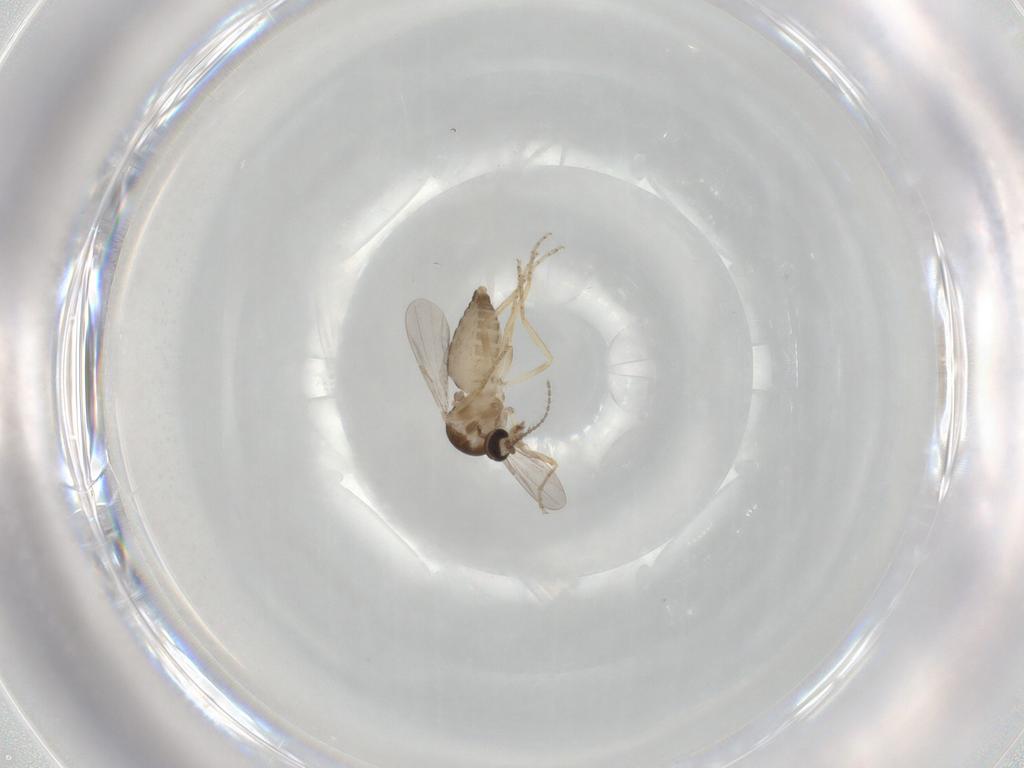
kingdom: Animalia
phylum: Arthropoda
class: Insecta
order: Diptera
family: Ceratopogonidae
